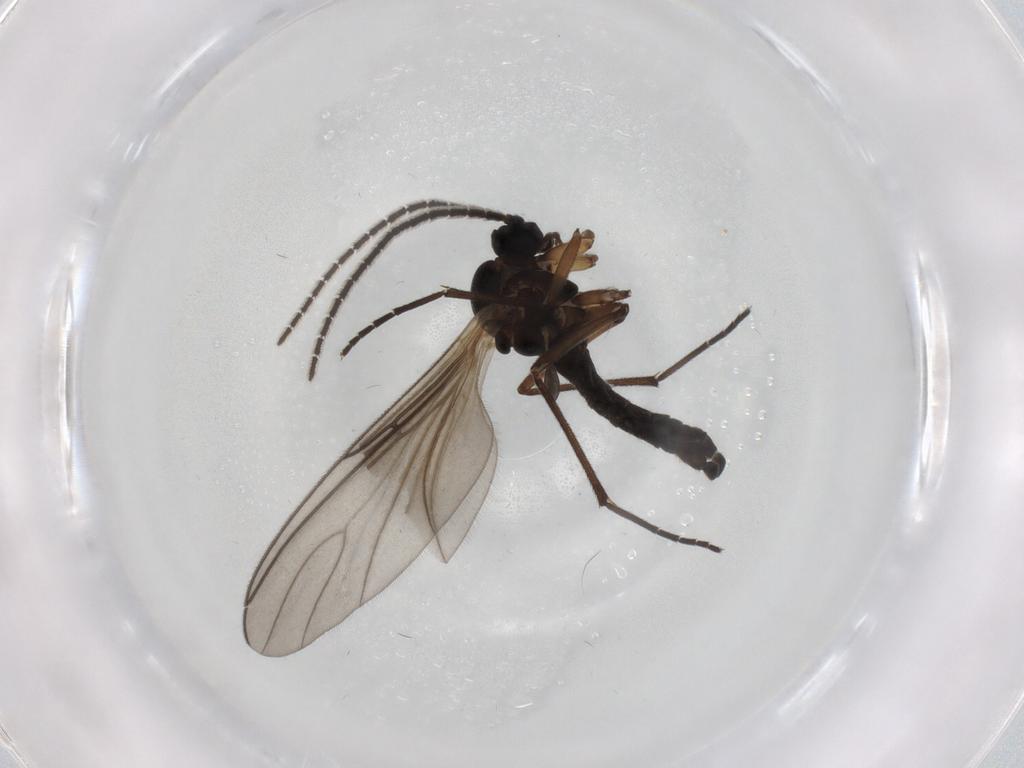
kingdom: Animalia
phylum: Arthropoda
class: Insecta
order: Diptera
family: Sciaridae
